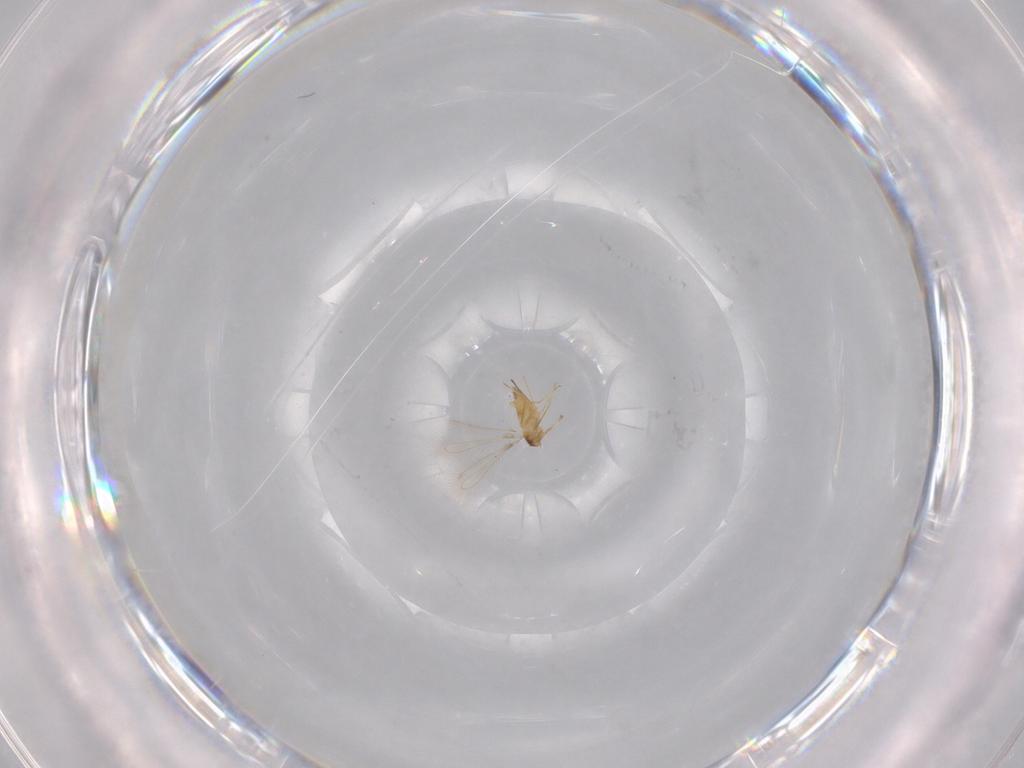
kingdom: Animalia
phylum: Arthropoda
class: Insecta
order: Hymenoptera
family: Mymaridae
